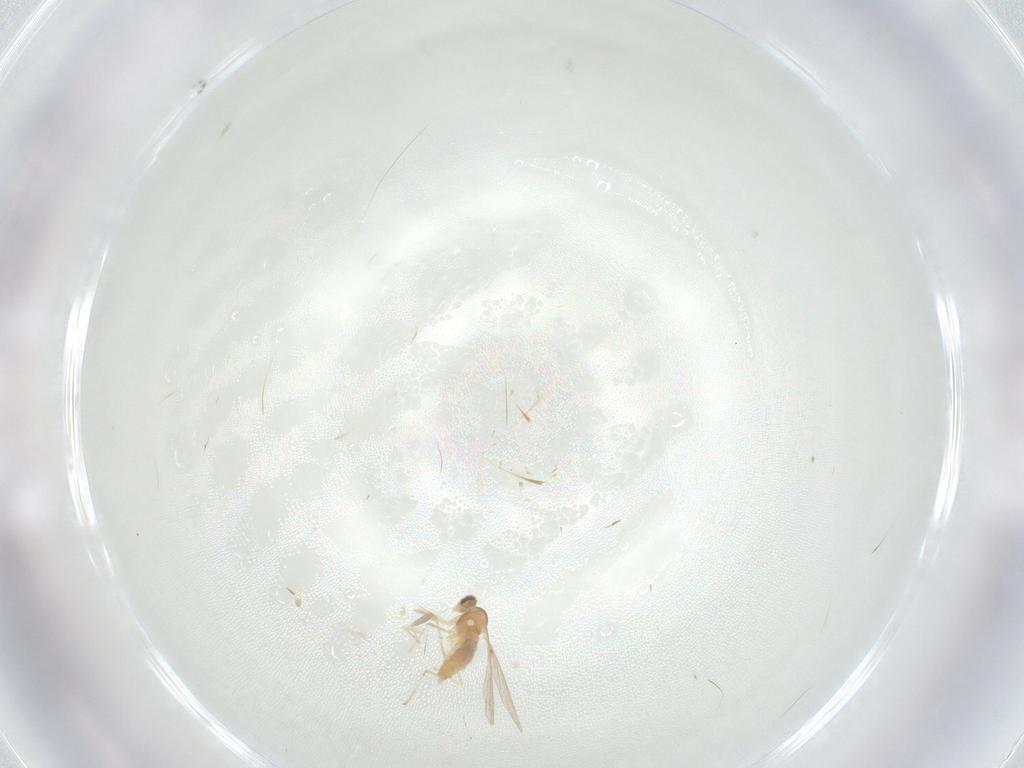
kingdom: Animalia
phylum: Arthropoda
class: Insecta
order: Diptera
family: Cecidomyiidae
